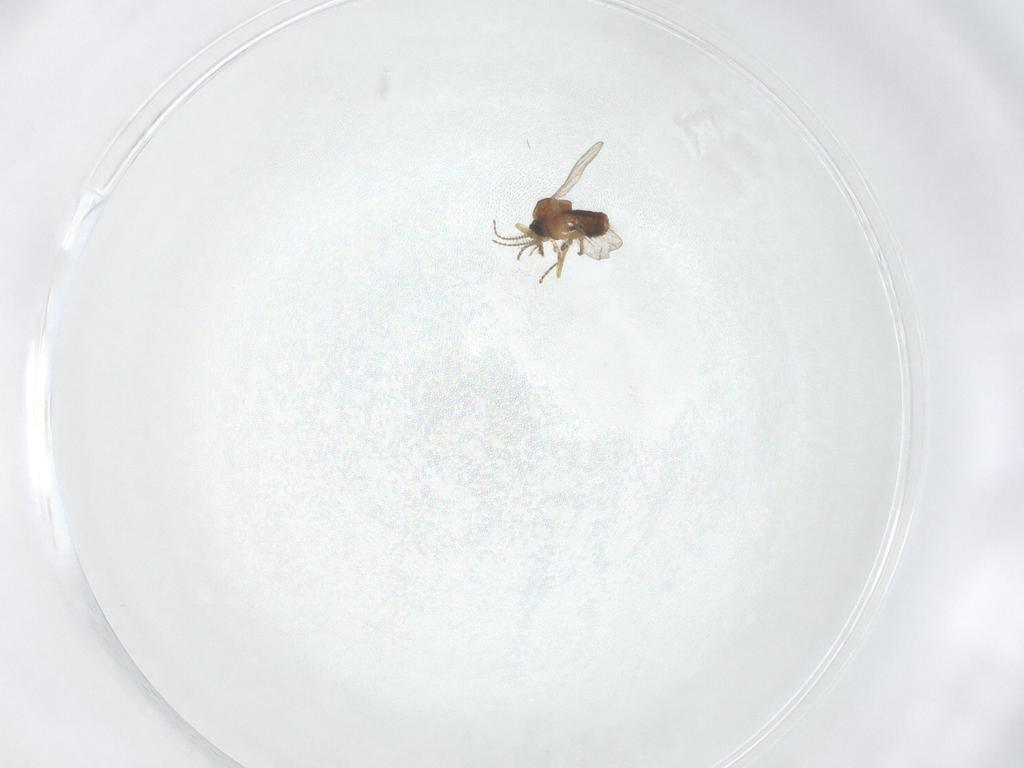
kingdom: Animalia
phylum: Arthropoda
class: Insecta
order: Diptera
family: Ceratopogonidae
